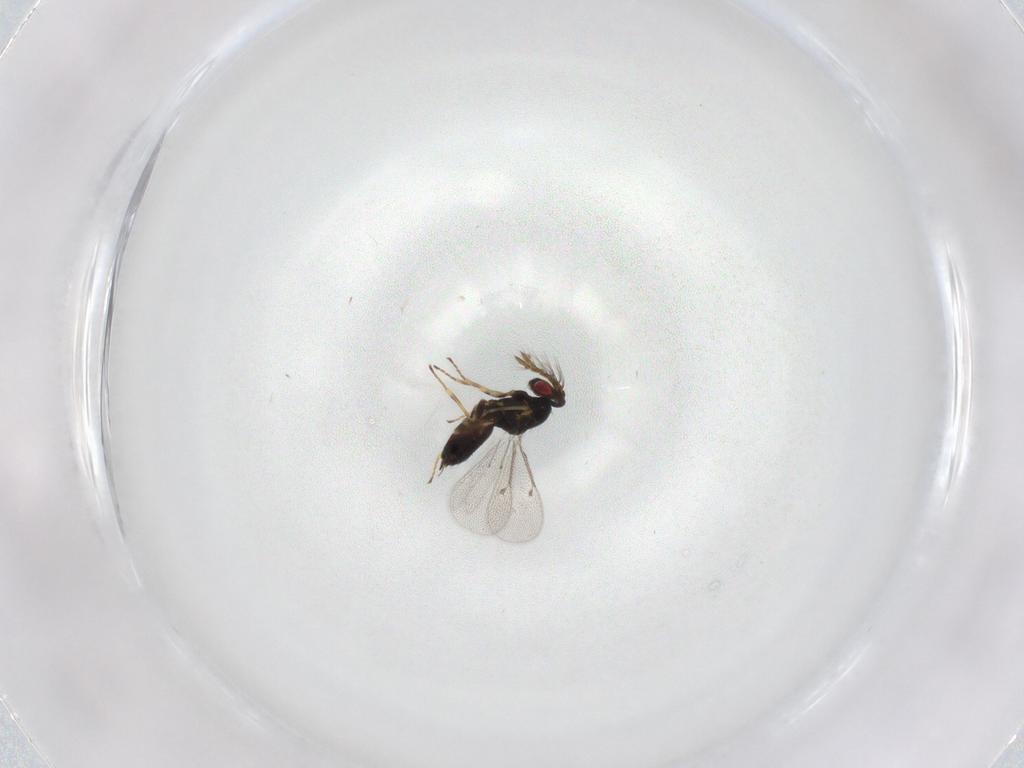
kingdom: Animalia
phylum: Arthropoda
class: Insecta
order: Hymenoptera
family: Eulophidae
